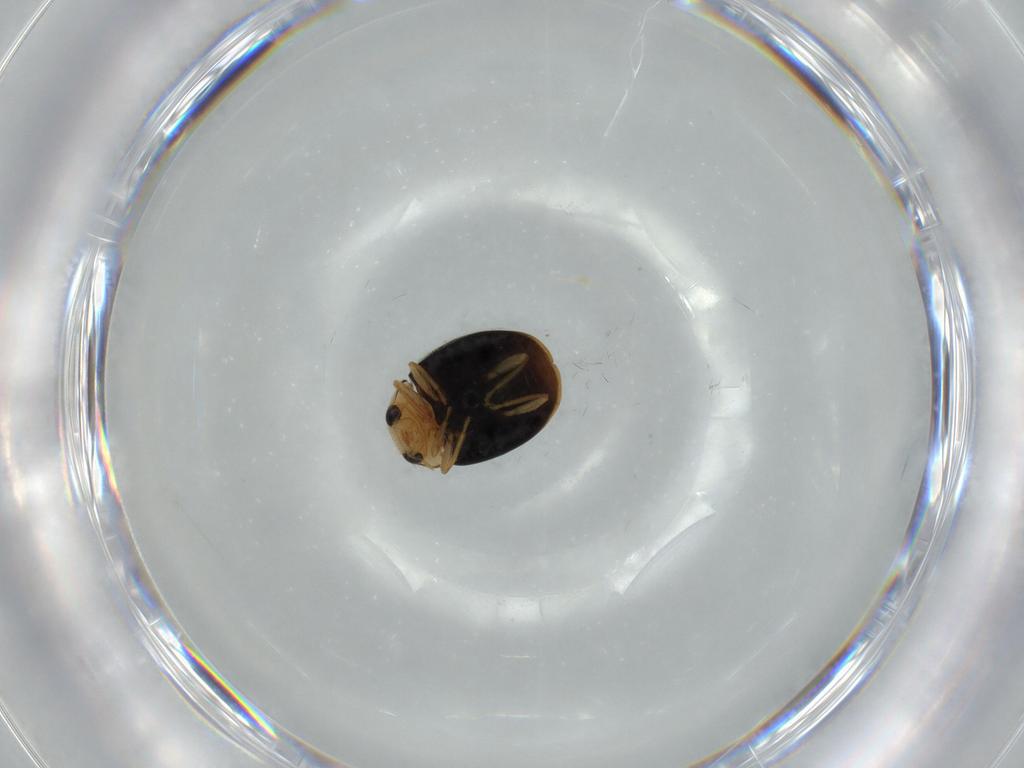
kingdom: Animalia
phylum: Arthropoda
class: Insecta
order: Coleoptera
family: Coccinellidae
